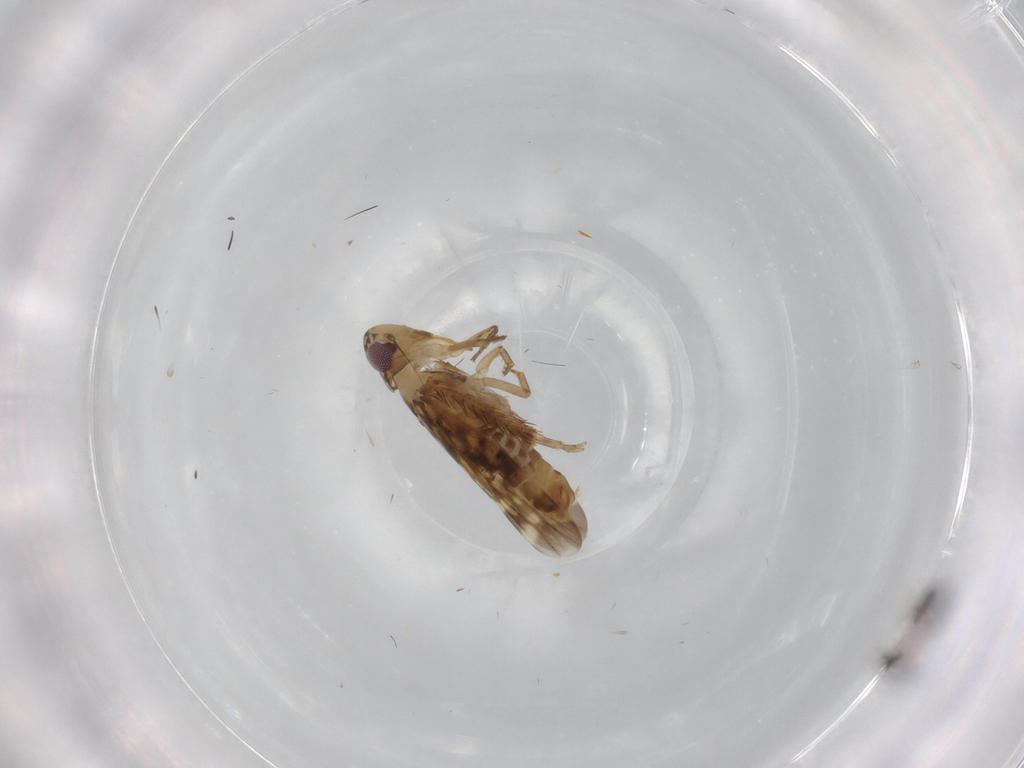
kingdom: Animalia
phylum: Arthropoda
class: Insecta
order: Hemiptera
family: Cicadellidae
